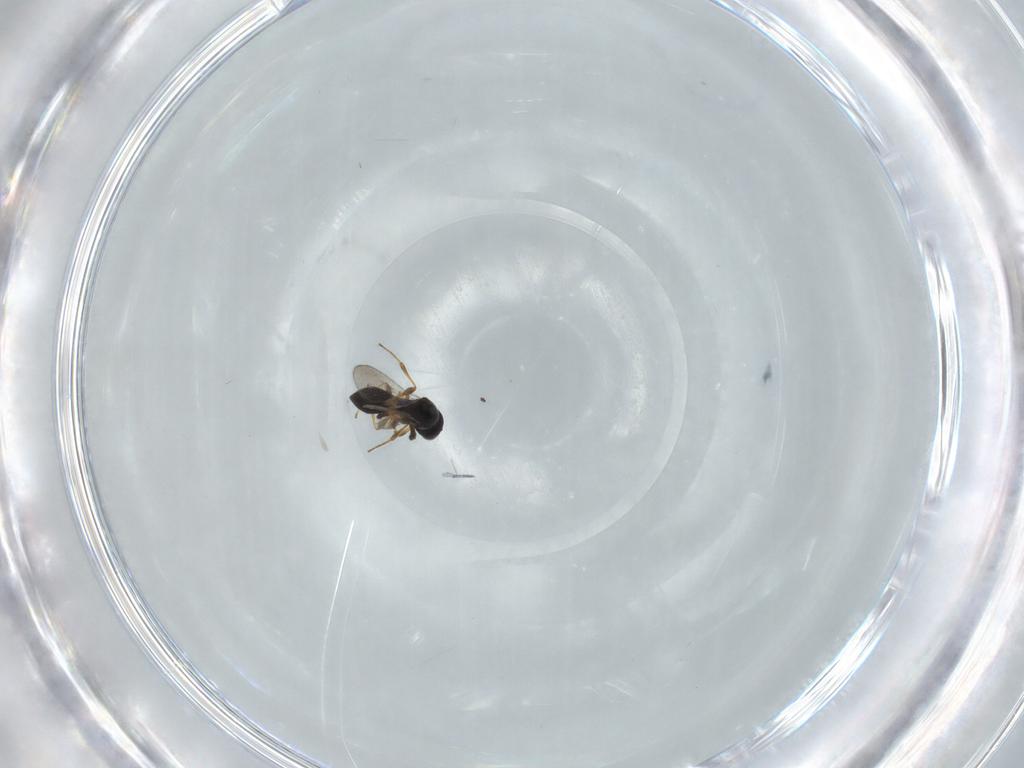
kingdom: Animalia
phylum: Arthropoda
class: Insecta
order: Hymenoptera
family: Platygastridae
